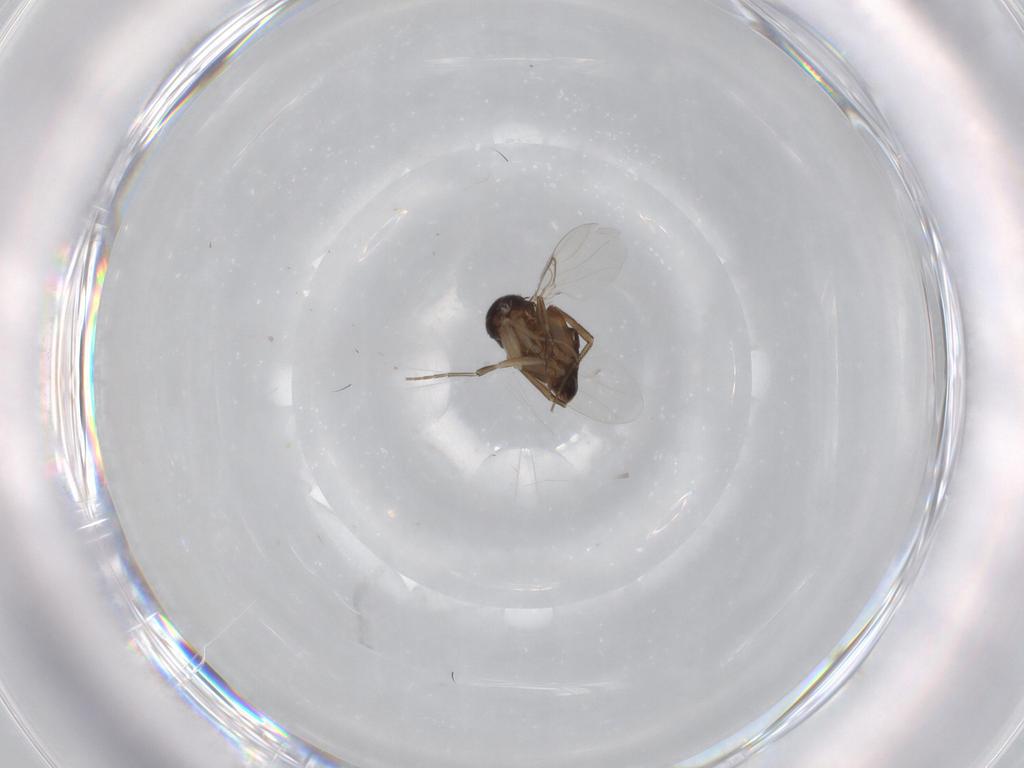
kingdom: Animalia
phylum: Arthropoda
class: Insecta
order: Diptera
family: Phoridae
